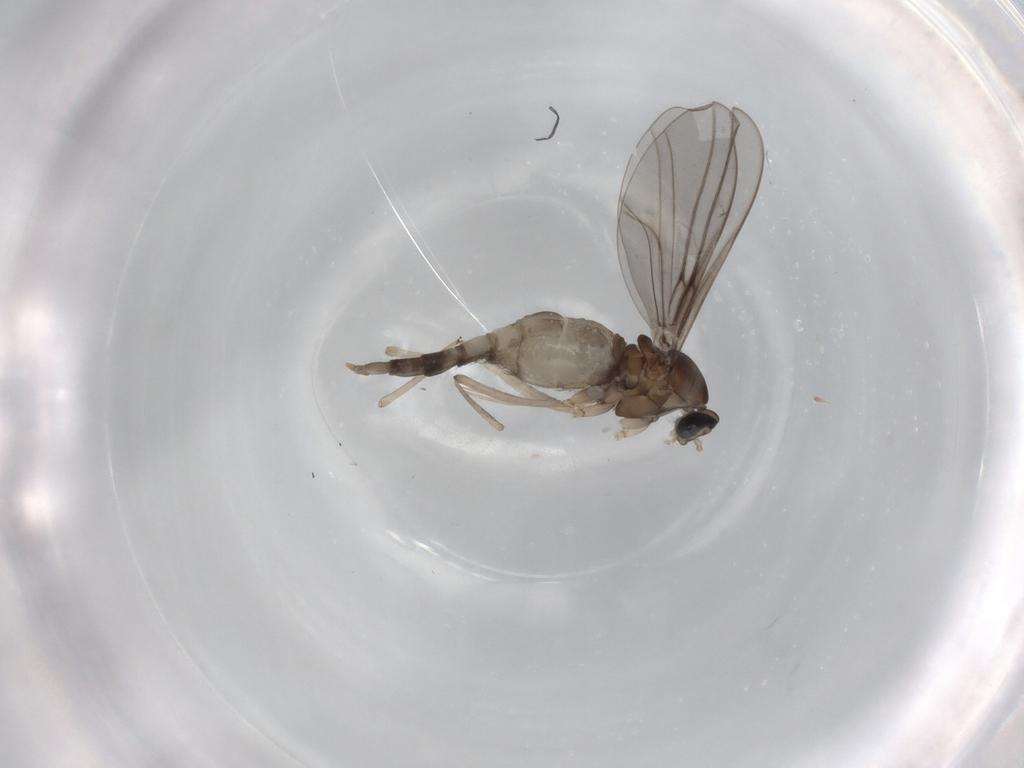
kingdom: Animalia
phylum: Arthropoda
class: Insecta
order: Diptera
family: Cecidomyiidae
